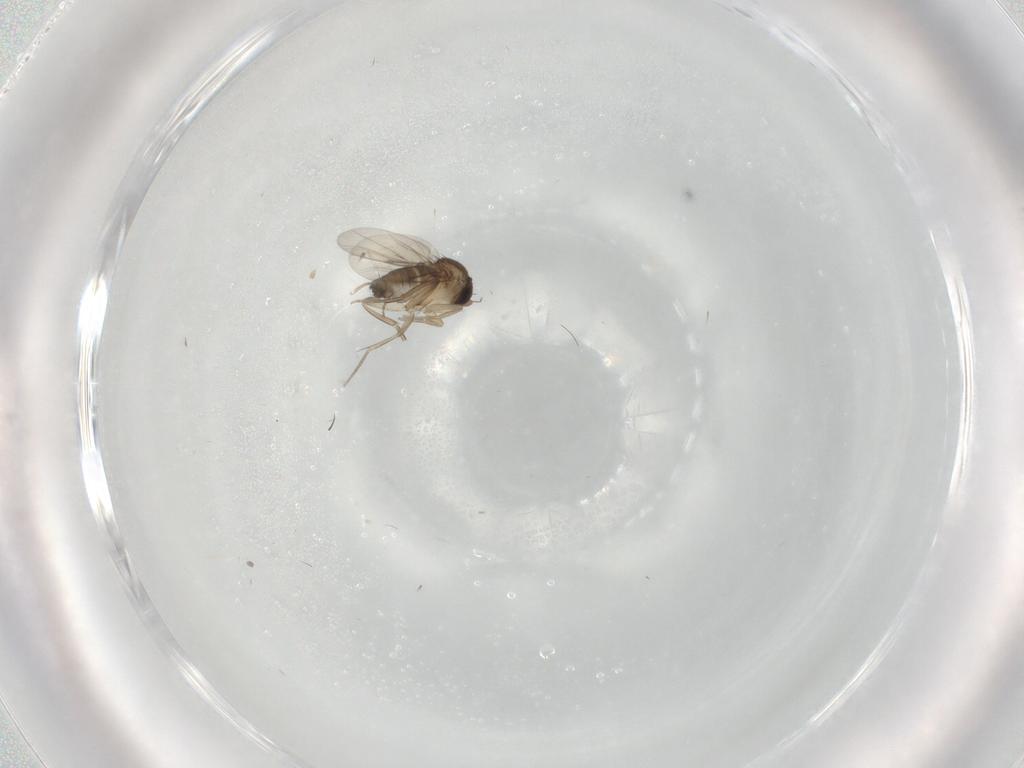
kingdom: Animalia
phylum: Arthropoda
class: Insecta
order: Diptera
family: Phoridae
